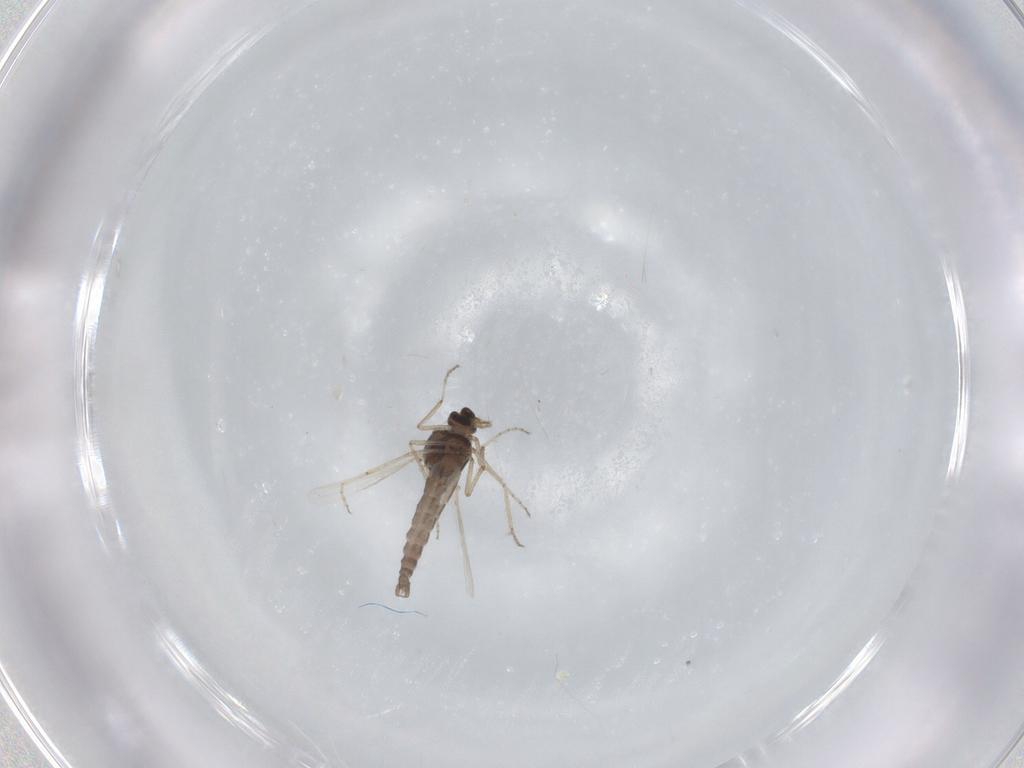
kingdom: Animalia
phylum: Arthropoda
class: Insecta
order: Diptera
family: Ceratopogonidae
